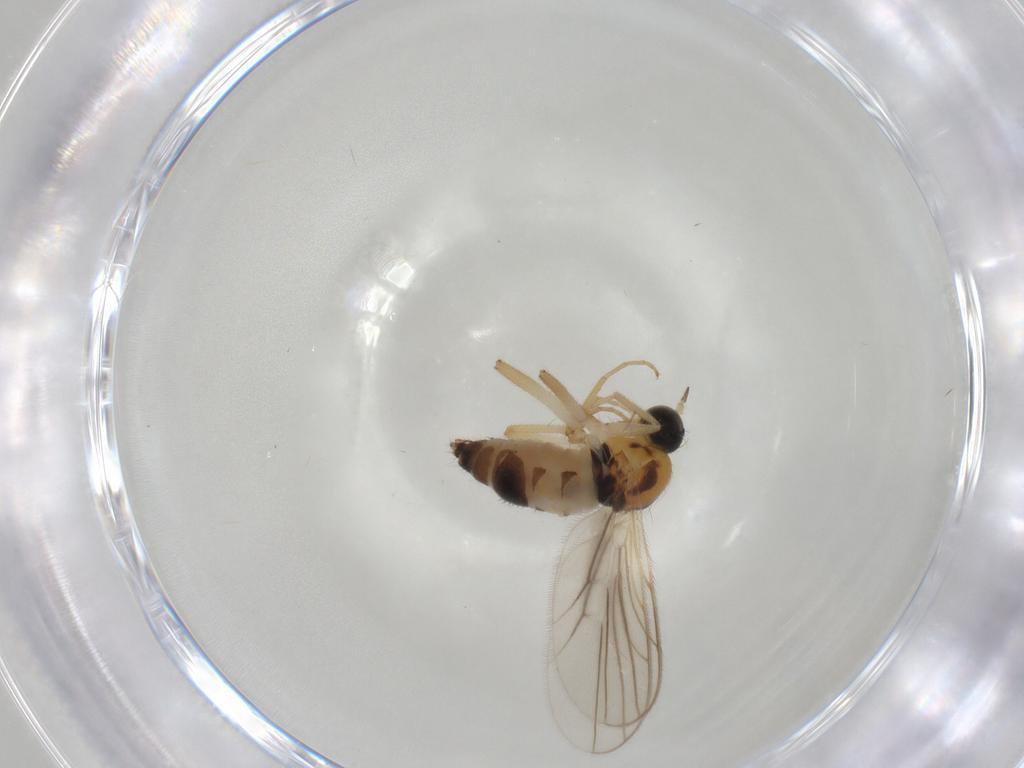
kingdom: Animalia
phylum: Arthropoda
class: Insecta
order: Diptera
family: Hybotidae
